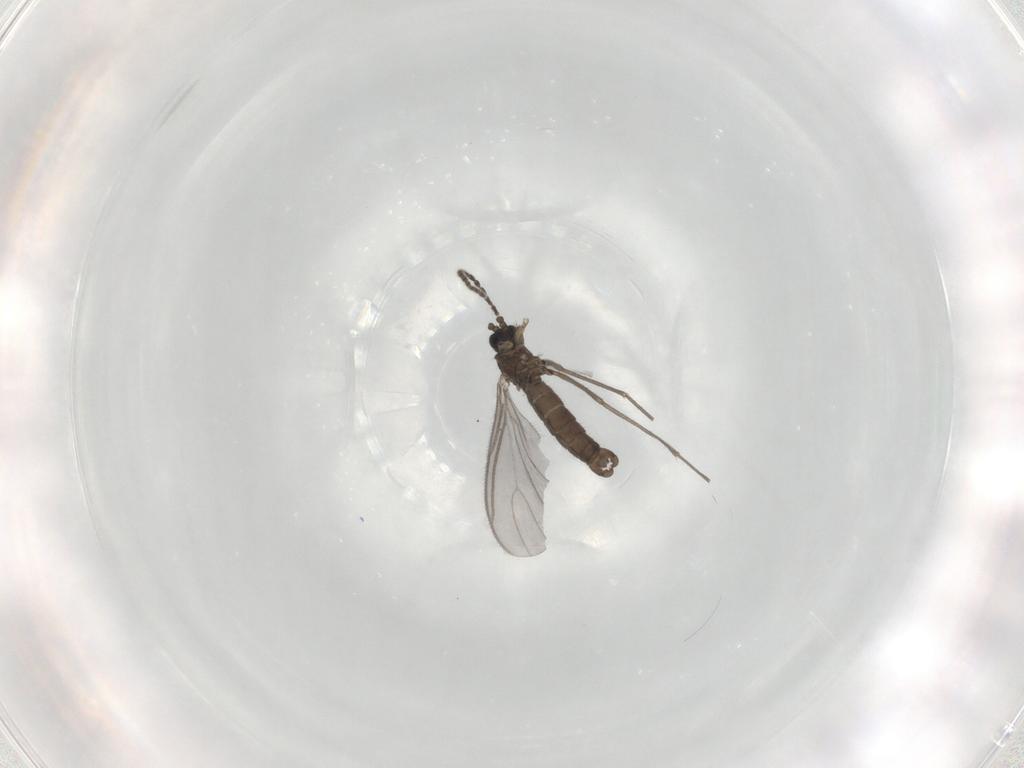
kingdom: Animalia
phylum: Arthropoda
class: Insecta
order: Diptera
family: Sciaridae
